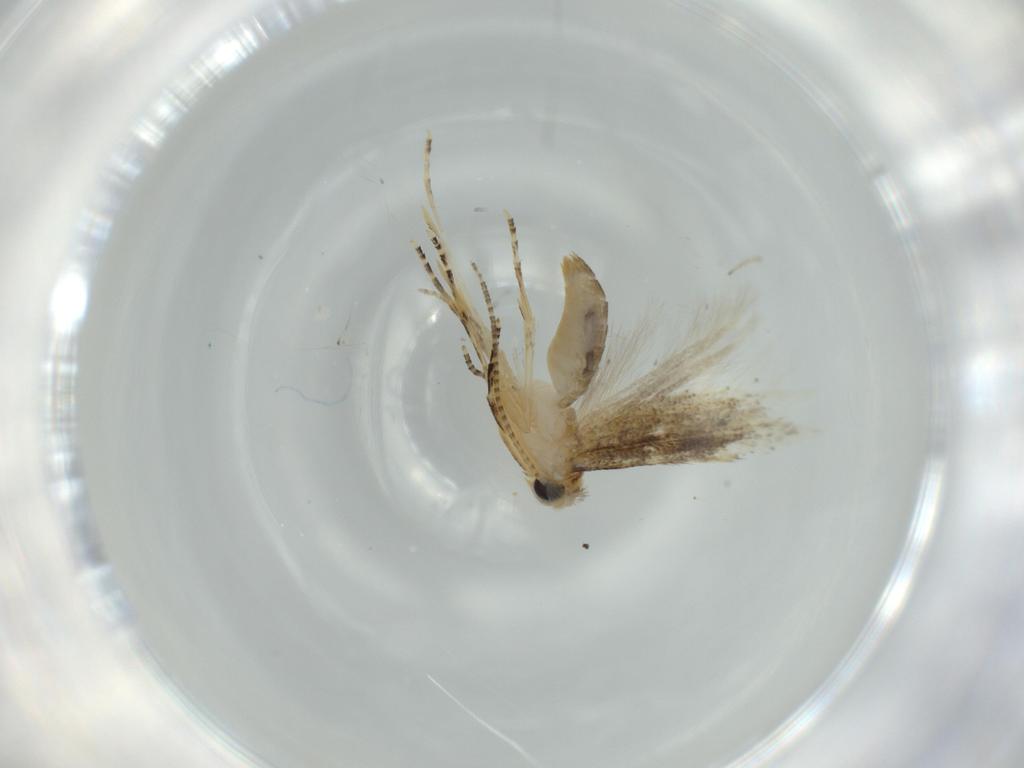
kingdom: Animalia
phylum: Arthropoda
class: Insecta
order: Lepidoptera
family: Bucculatricidae
